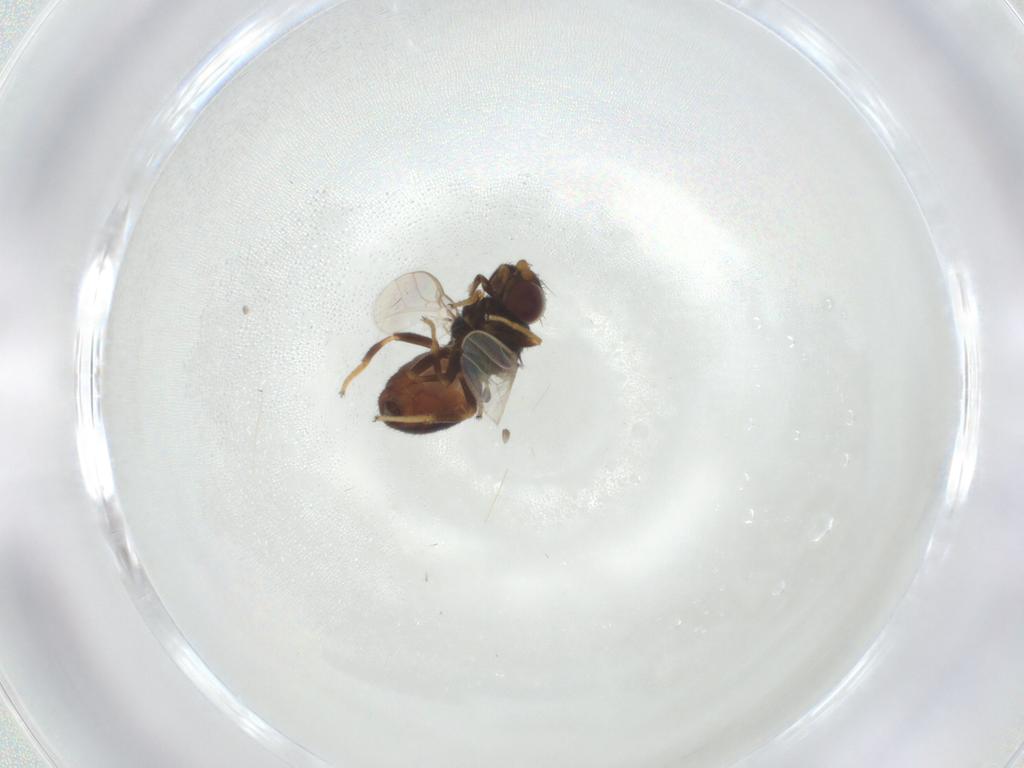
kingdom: Animalia
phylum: Arthropoda
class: Insecta
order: Diptera
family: Chloropidae
